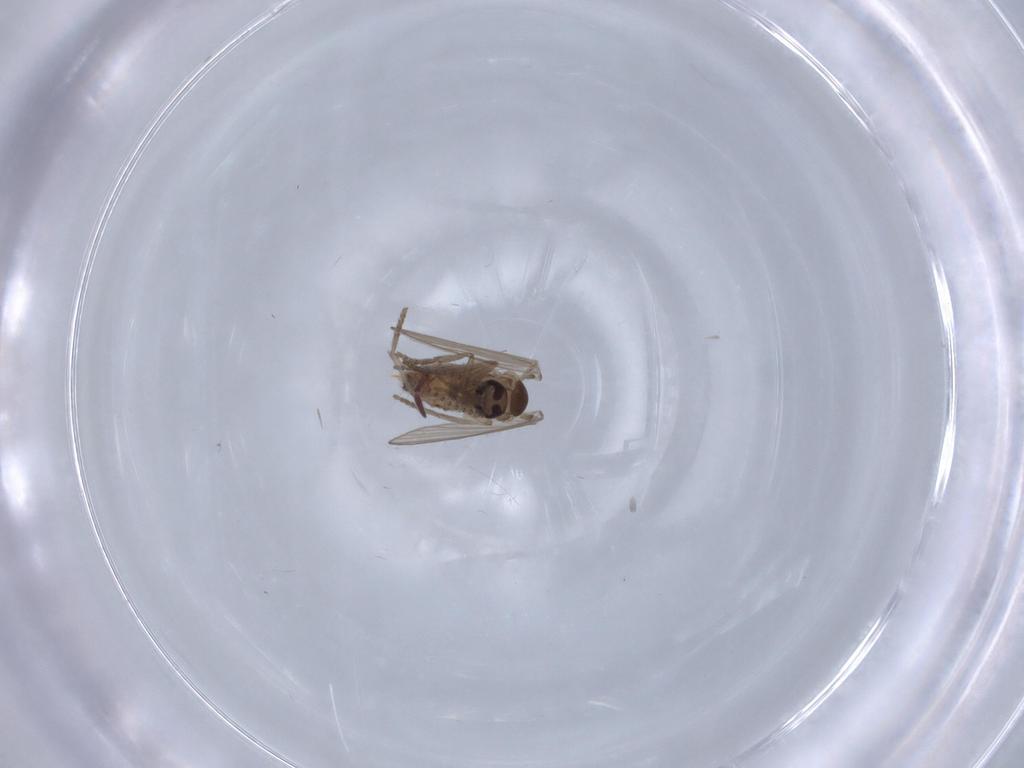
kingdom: Animalia
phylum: Arthropoda
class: Insecta
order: Diptera
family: Psychodidae
